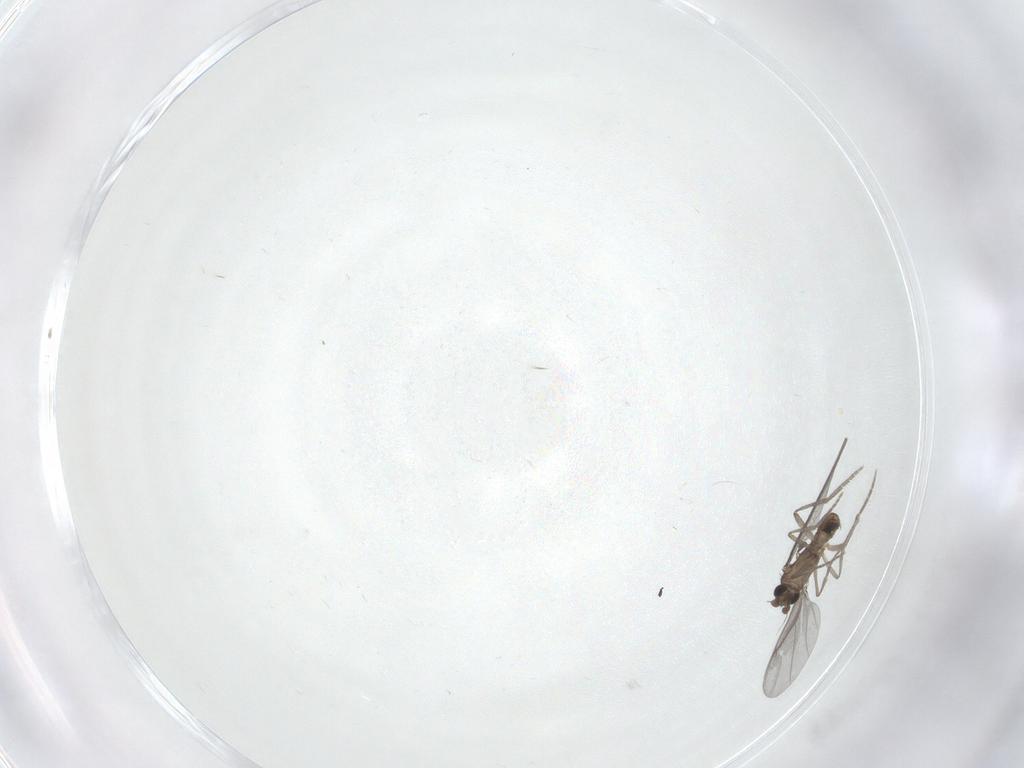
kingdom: Animalia
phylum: Arthropoda
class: Insecta
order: Diptera
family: Phoridae
